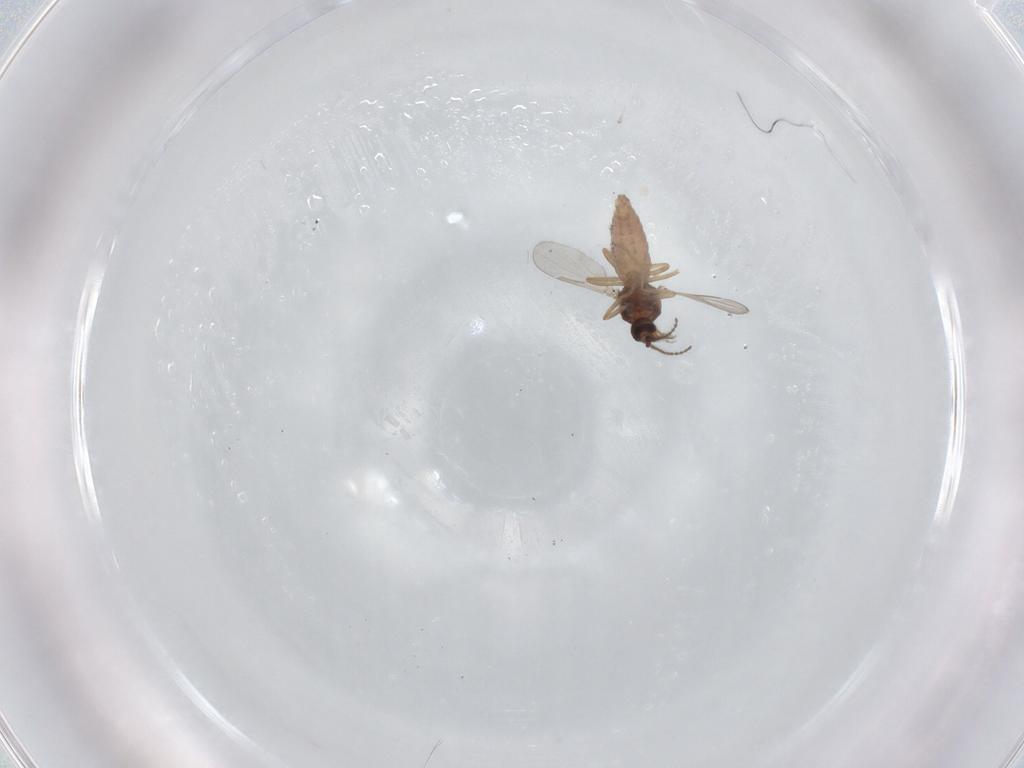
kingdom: Animalia
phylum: Arthropoda
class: Insecta
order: Diptera
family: Ceratopogonidae
